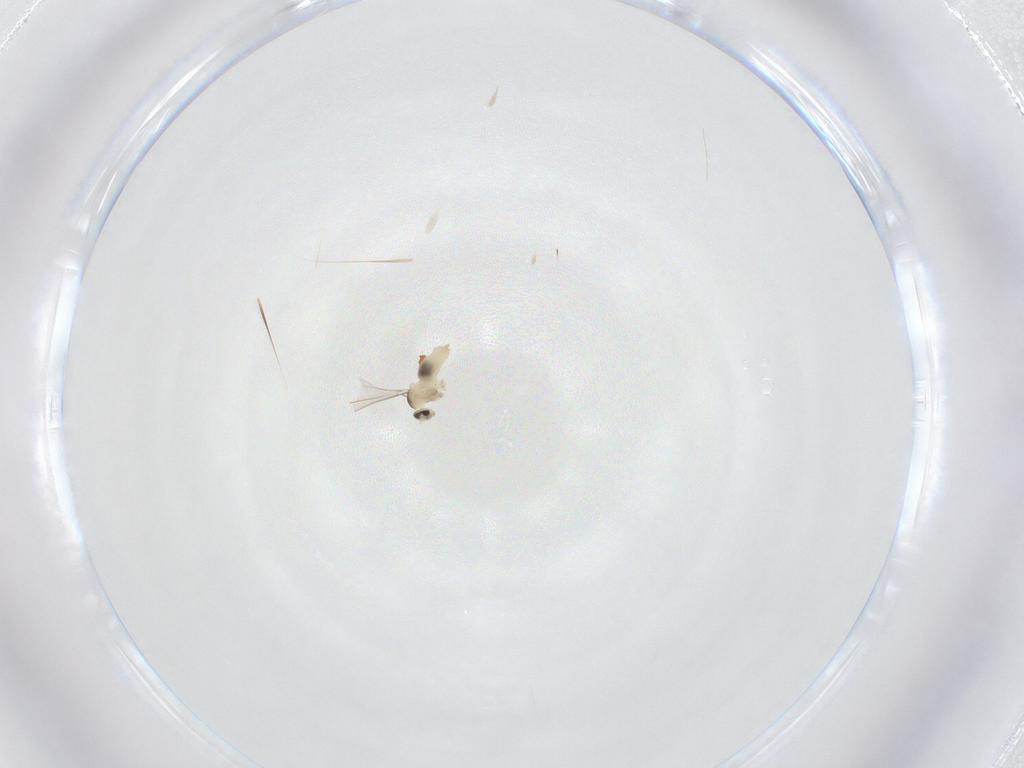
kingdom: Animalia
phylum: Arthropoda
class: Insecta
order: Diptera
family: Cecidomyiidae
